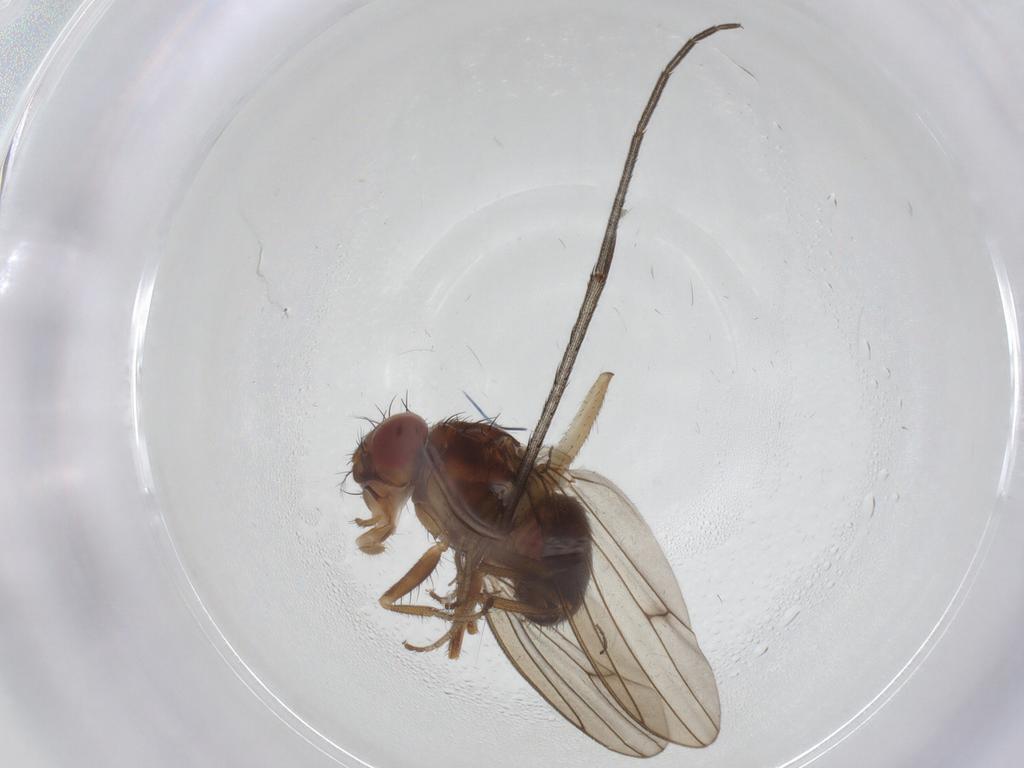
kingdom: Animalia
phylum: Arthropoda
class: Insecta
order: Diptera
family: Drosophilidae
